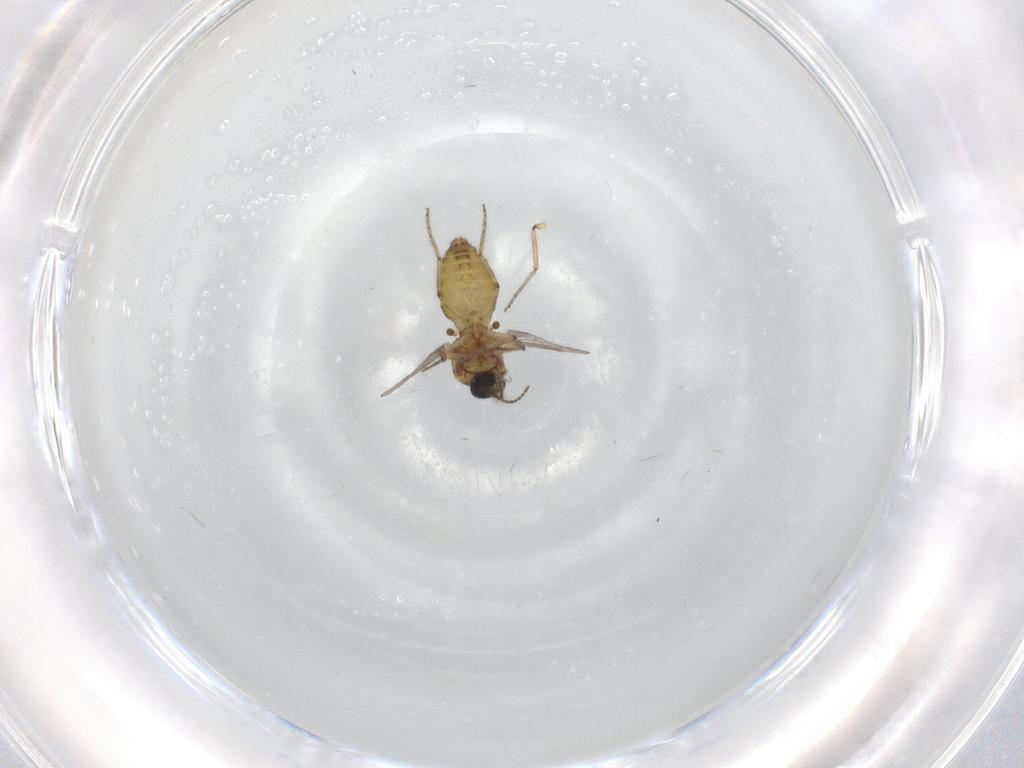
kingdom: Animalia
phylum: Arthropoda
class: Insecta
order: Diptera
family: Ceratopogonidae
